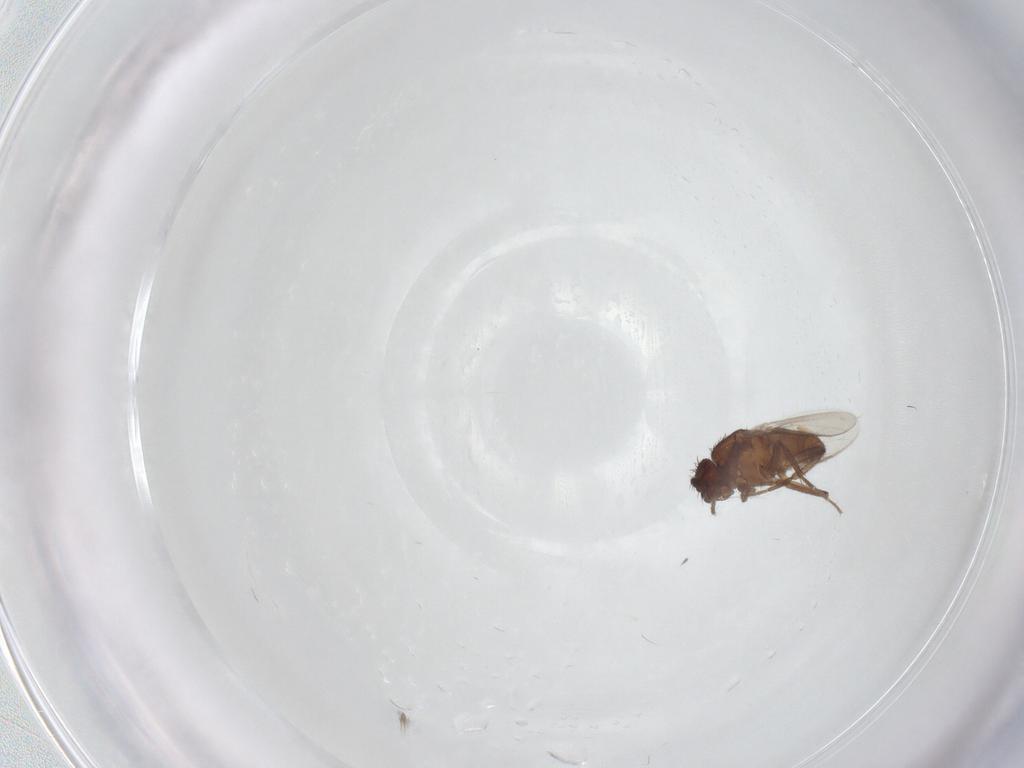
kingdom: Animalia
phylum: Arthropoda
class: Insecta
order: Diptera
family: Sphaeroceridae
